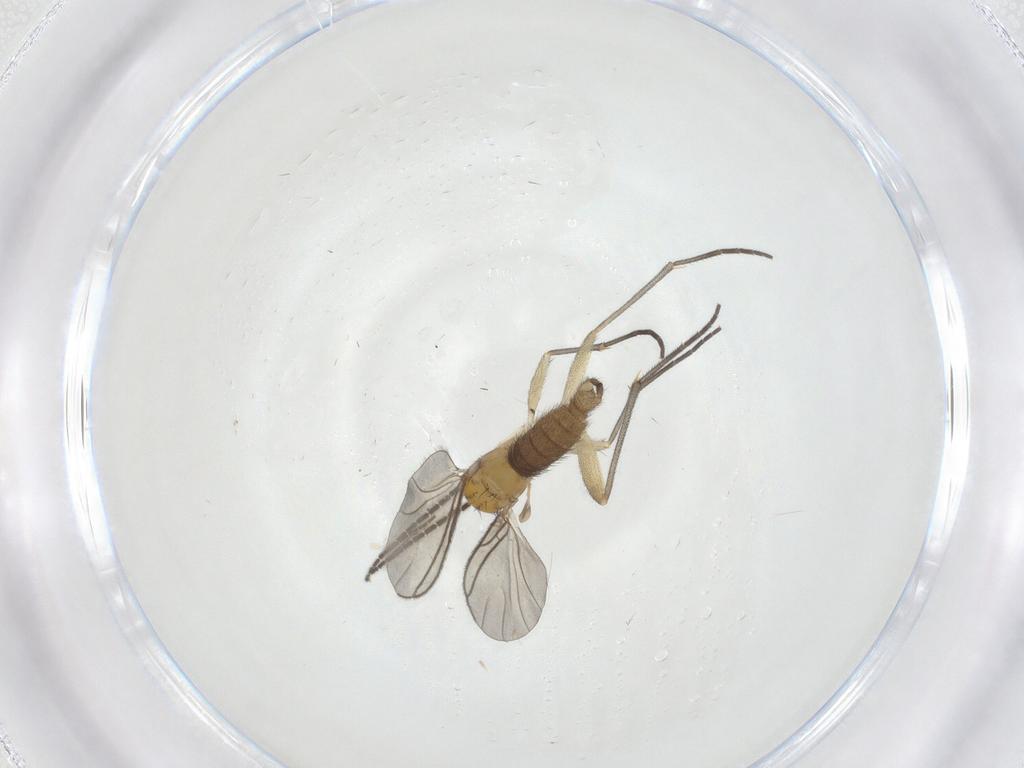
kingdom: Animalia
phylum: Arthropoda
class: Insecta
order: Diptera
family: Sciaridae
